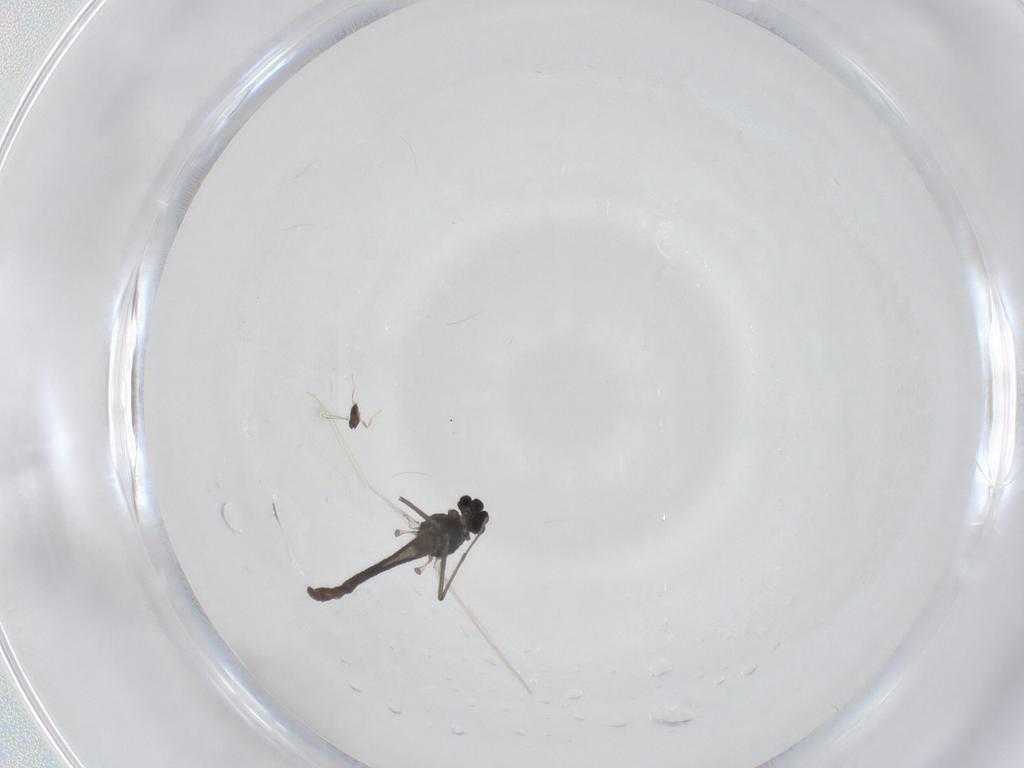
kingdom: Animalia
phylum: Arthropoda
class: Insecta
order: Diptera
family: Chironomidae
